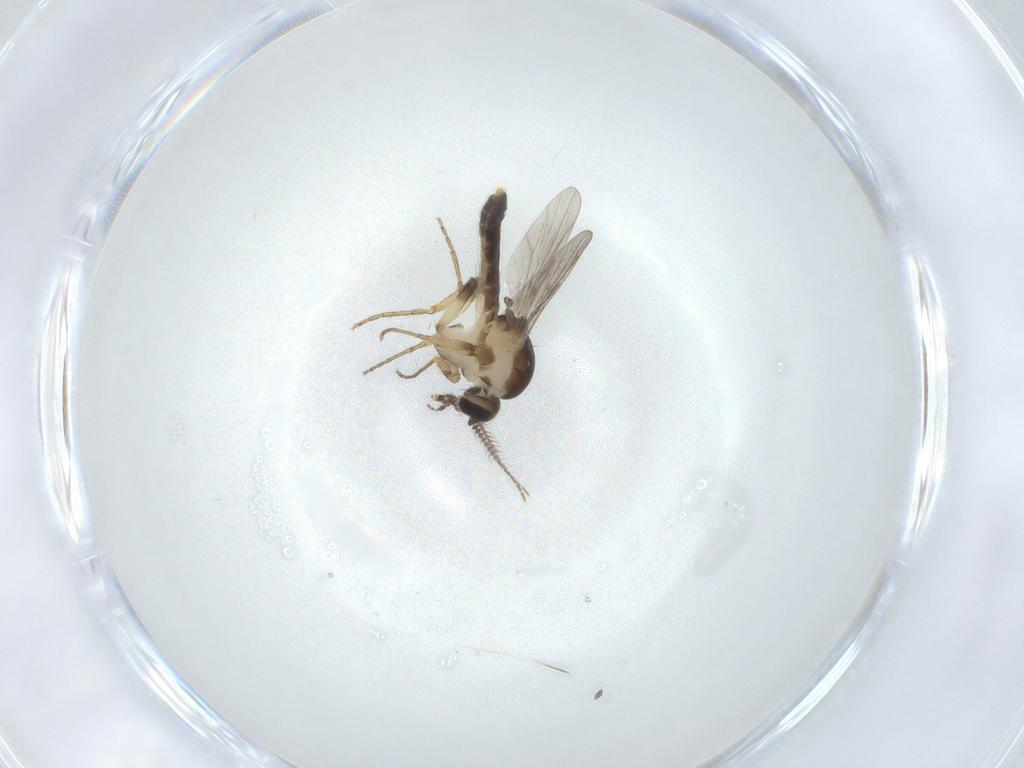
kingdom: Animalia
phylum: Arthropoda
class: Insecta
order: Diptera
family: Ceratopogonidae
